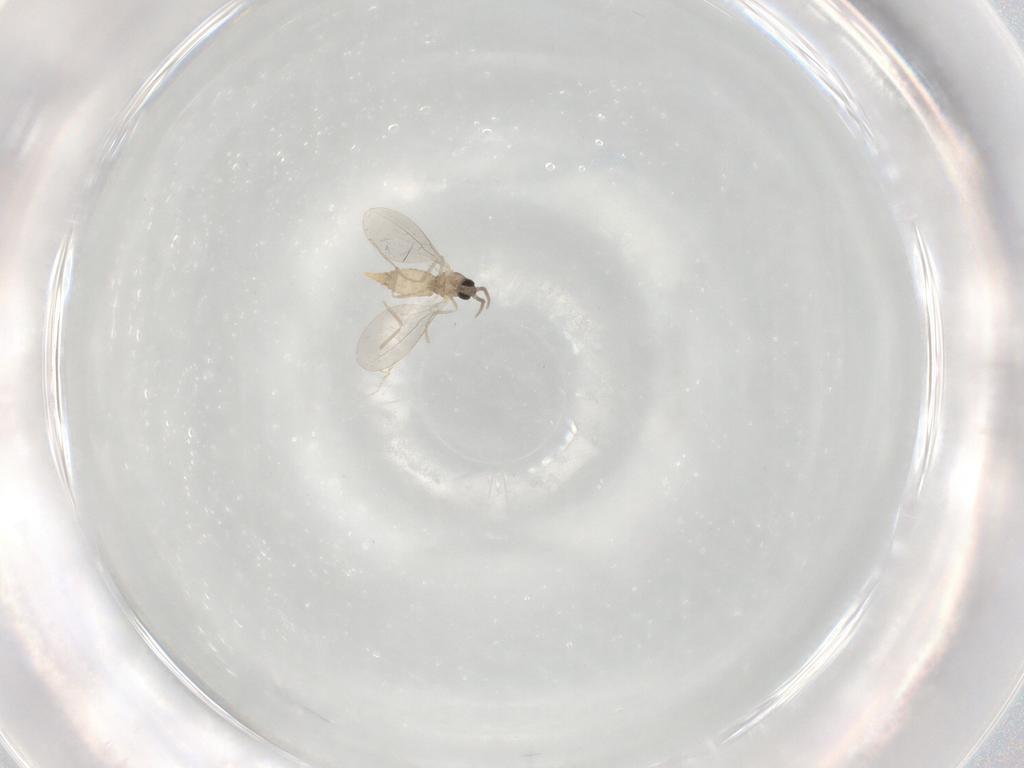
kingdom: Animalia
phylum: Arthropoda
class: Insecta
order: Diptera
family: Cecidomyiidae
